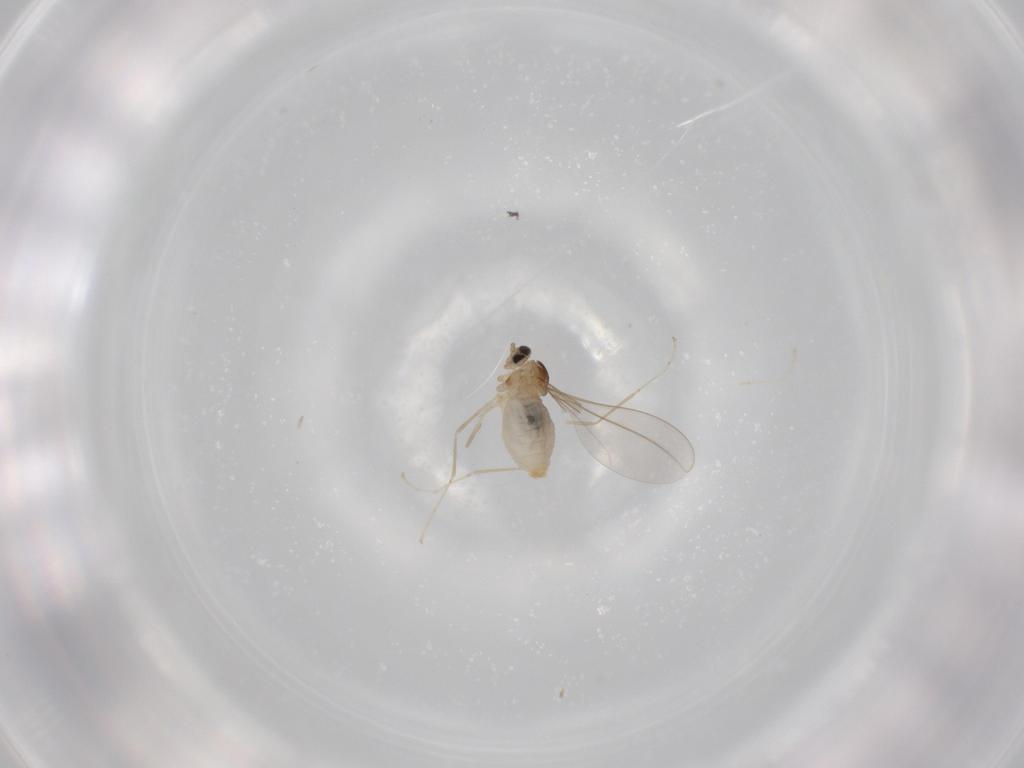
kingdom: Animalia
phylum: Arthropoda
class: Insecta
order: Diptera
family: Cecidomyiidae
